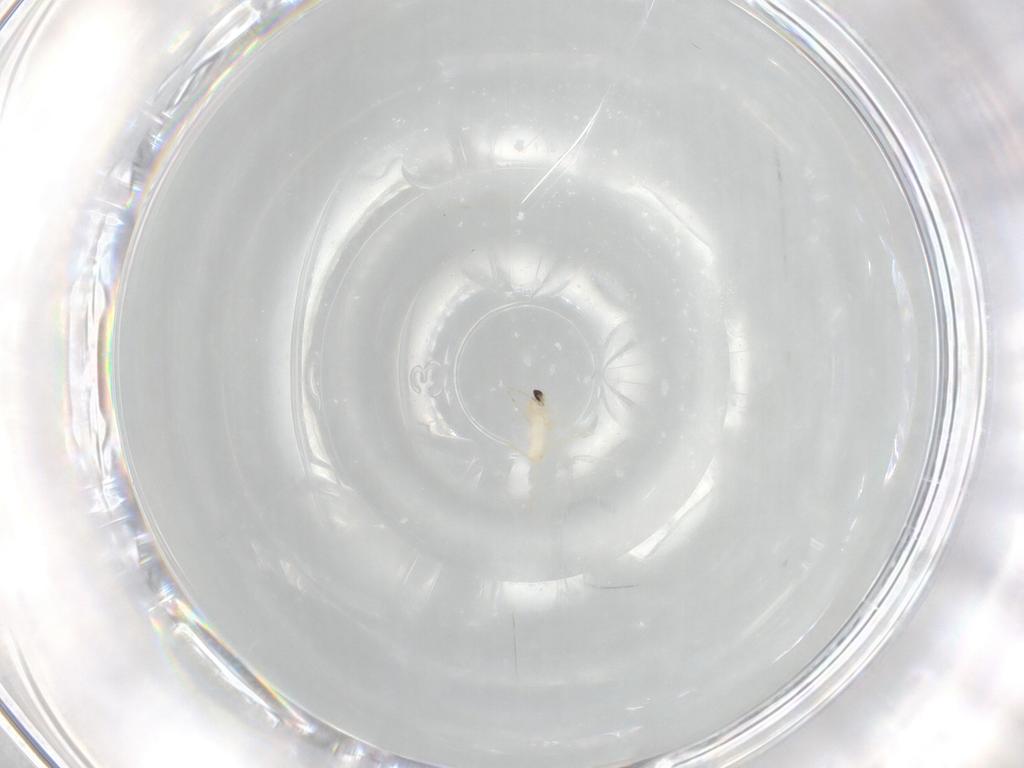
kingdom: Animalia
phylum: Arthropoda
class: Insecta
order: Diptera
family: Cecidomyiidae
